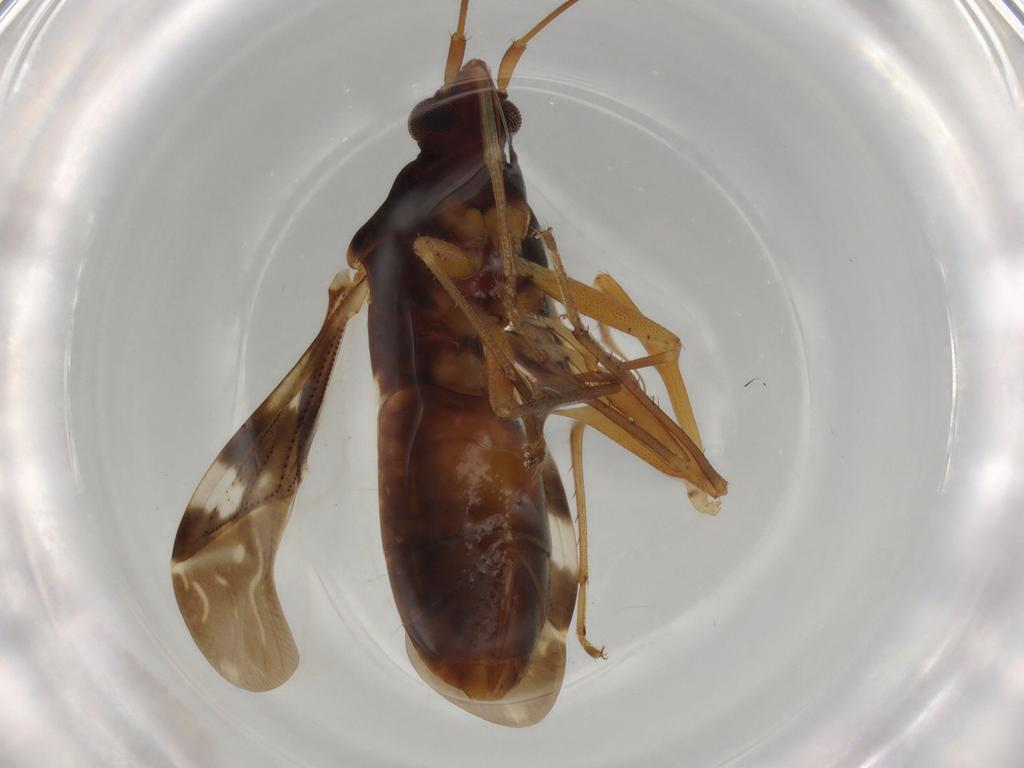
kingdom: Animalia
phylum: Arthropoda
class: Insecta
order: Hemiptera
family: Rhyparochromidae
